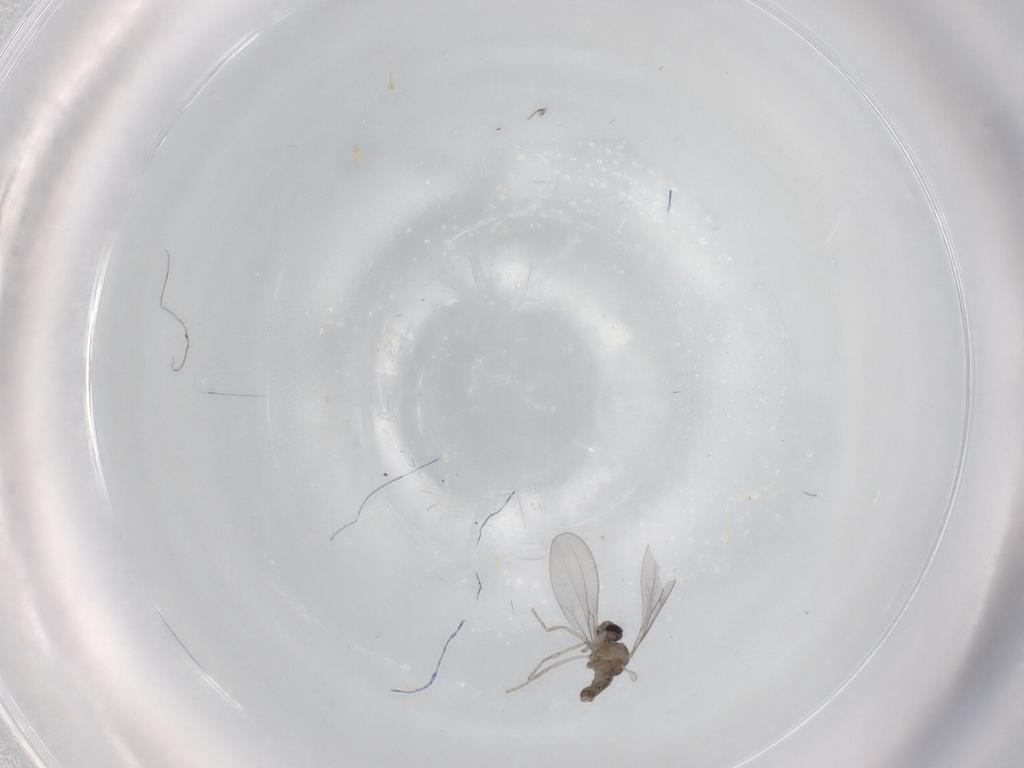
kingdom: Animalia
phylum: Arthropoda
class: Insecta
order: Diptera
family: Cecidomyiidae
